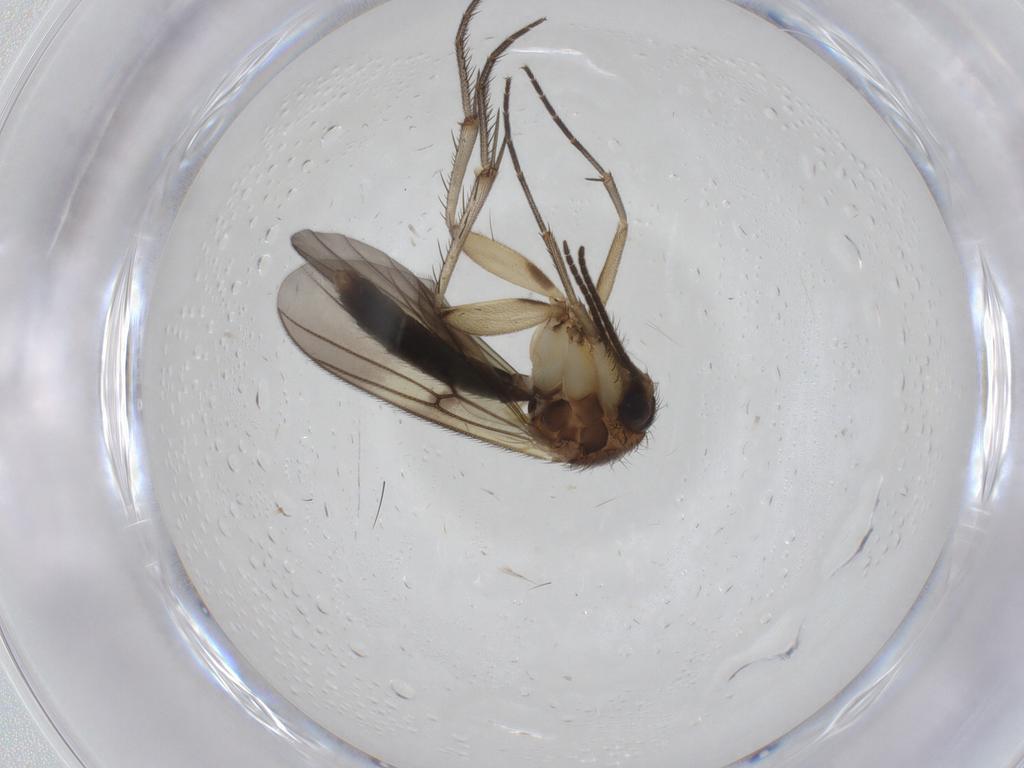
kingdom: Animalia
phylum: Arthropoda
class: Insecta
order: Diptera
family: Mycetophilidae
